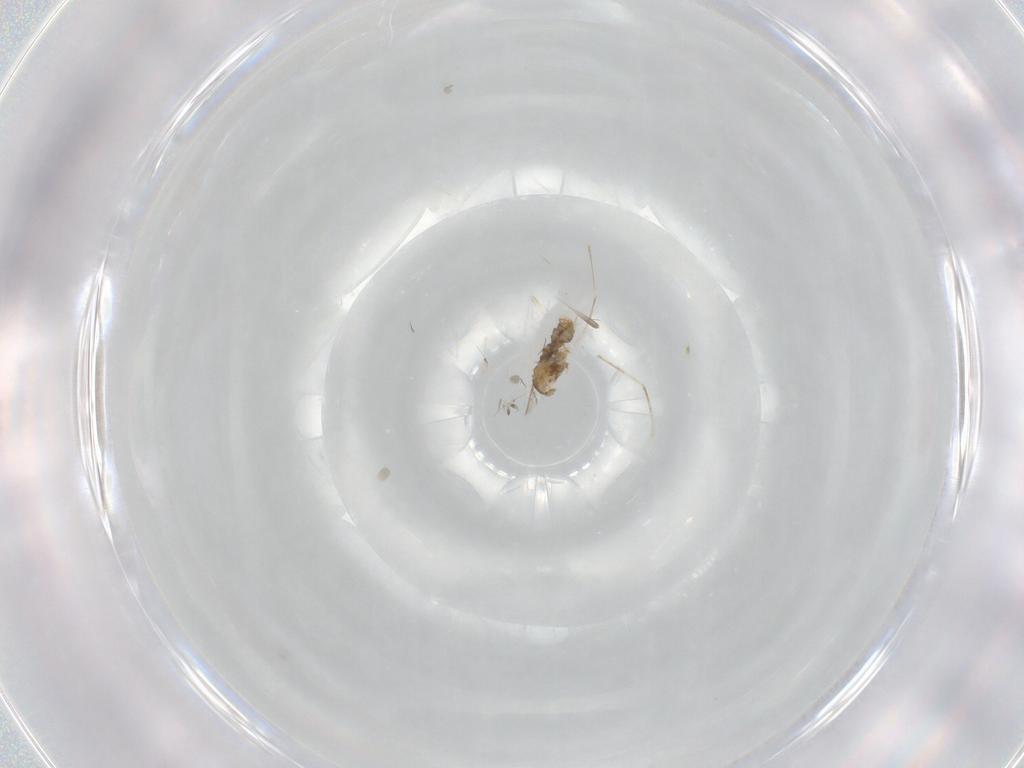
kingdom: Animalia
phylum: Arthropoda
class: Insecta
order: Diptera
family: Cecidomyiidae
